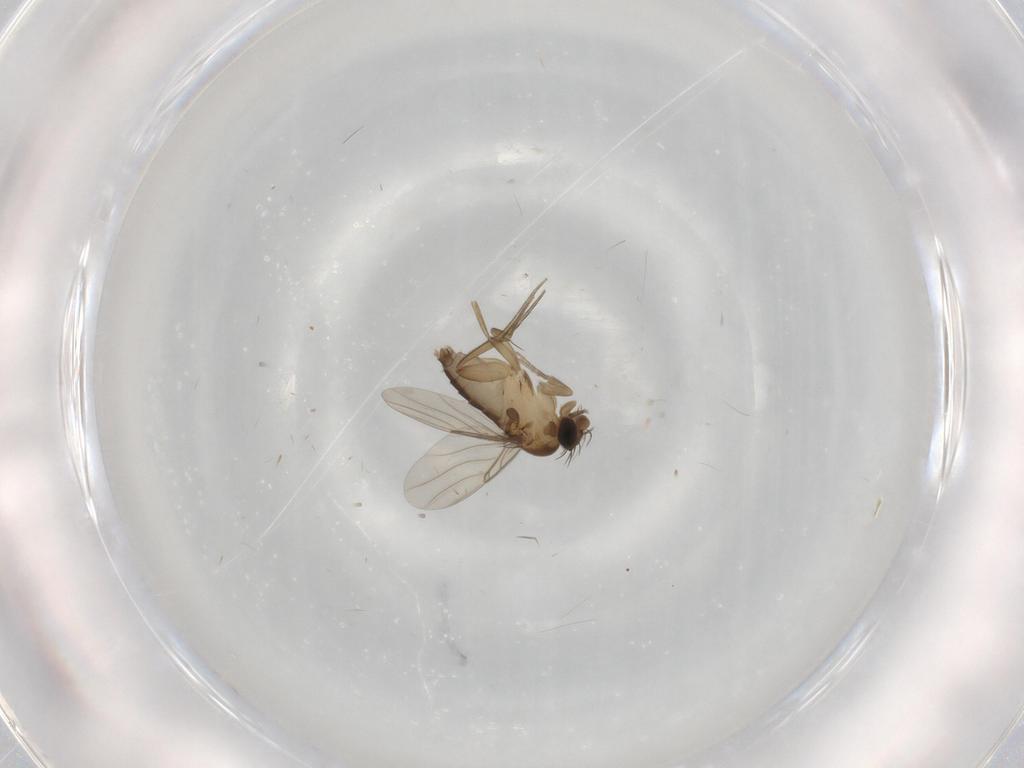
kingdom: Animalia
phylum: Arthropoda
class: Insecta
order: Diptera
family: Phoridae
